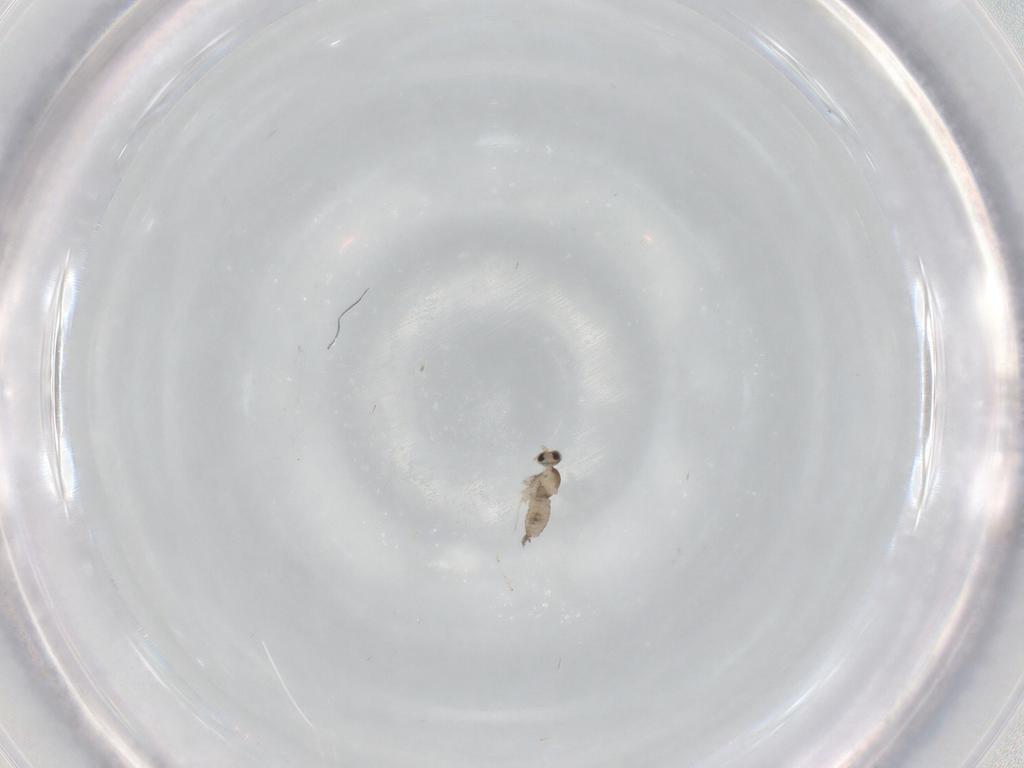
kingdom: Animalia
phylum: Arthropoda
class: Insecta
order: Diptera
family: Cecidomyiidae
